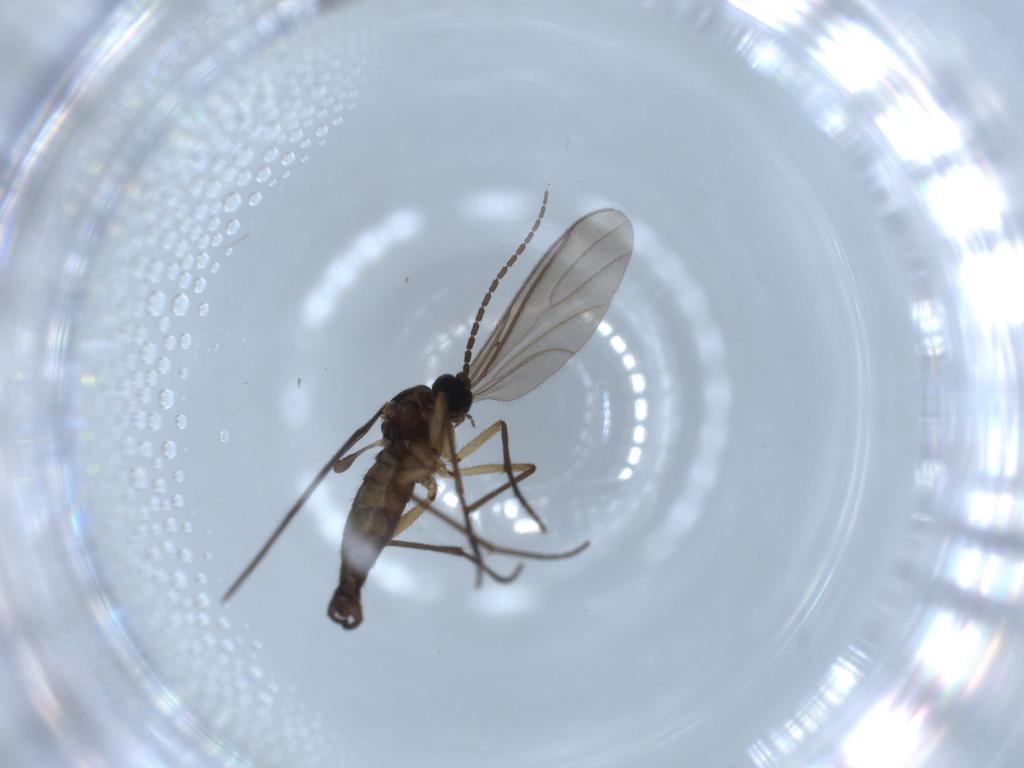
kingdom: Animalia
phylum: Arthropoda
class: Insecta
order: Diptera
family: Sciaridae
